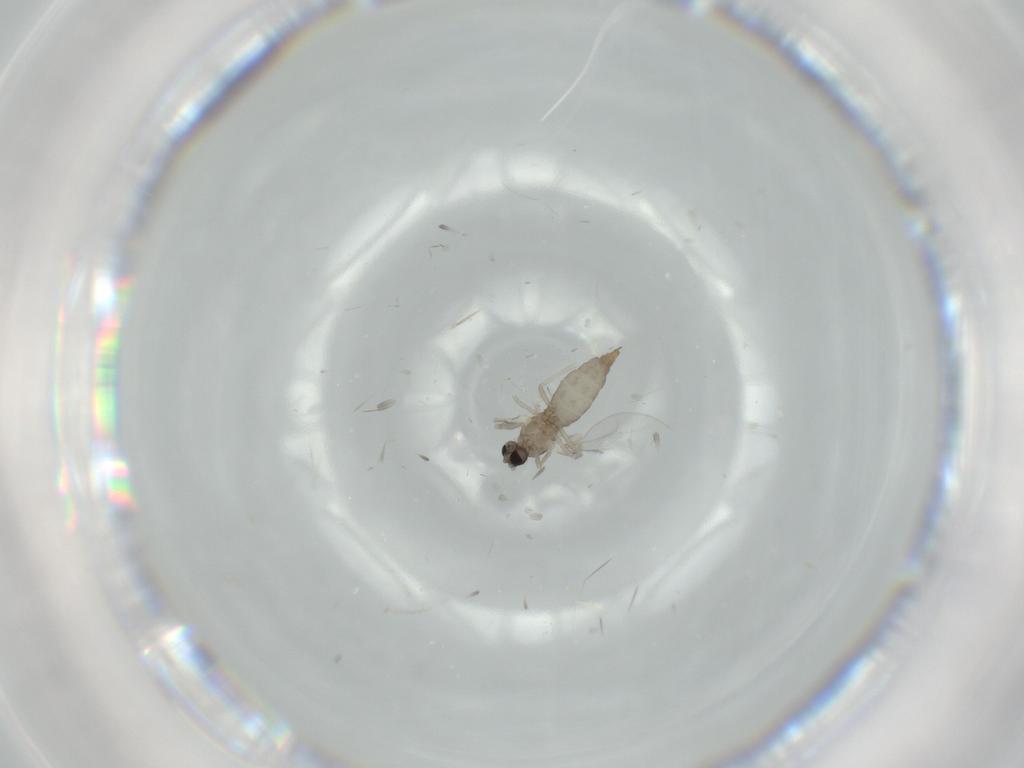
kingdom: Animalia
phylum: Arthropoda
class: Insecta
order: Diptera
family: Cecidomyiidae
